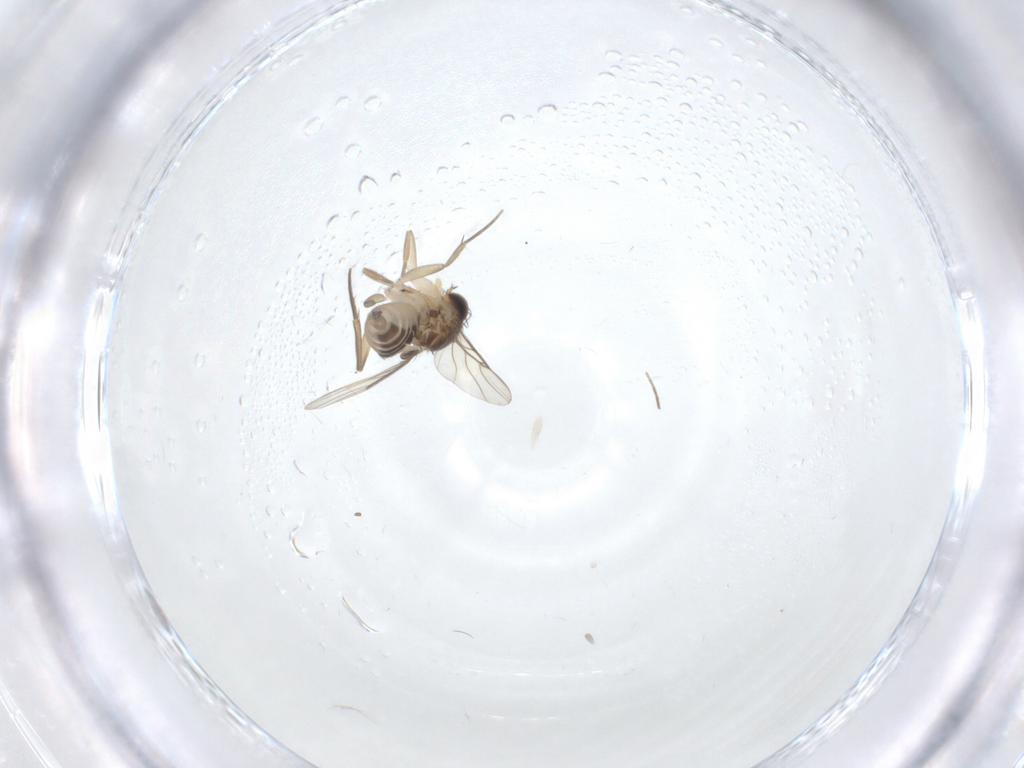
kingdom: Animalia
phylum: Arthropoda
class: Insecta
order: Diptera
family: Phoridae
